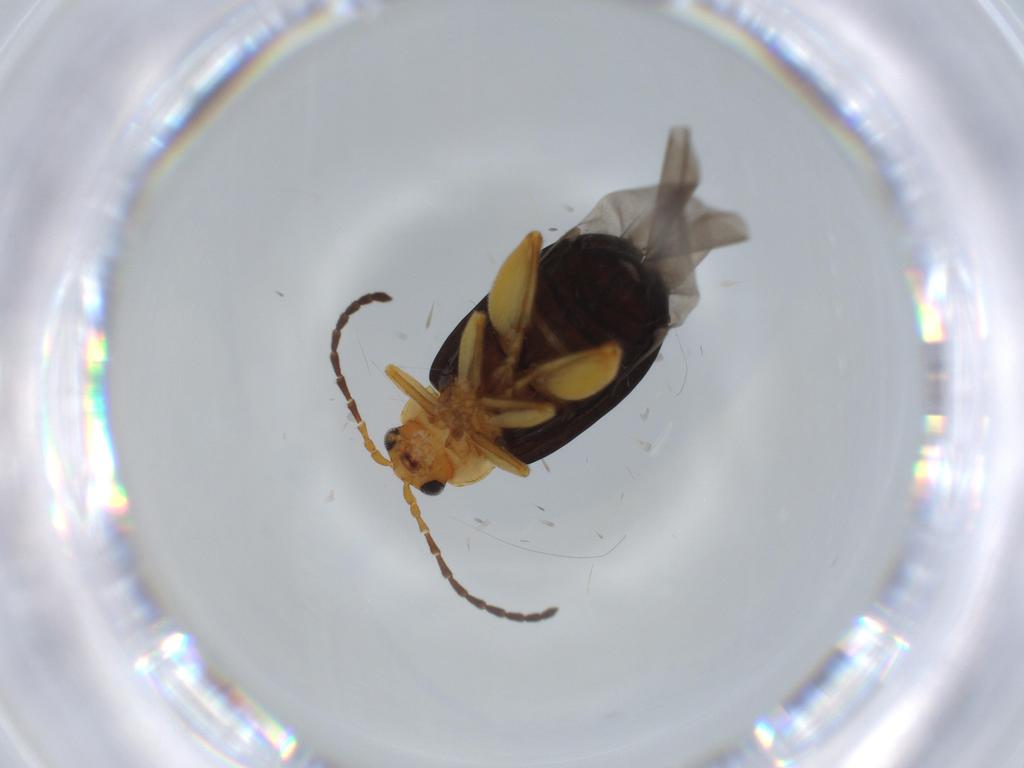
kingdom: Animalia
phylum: Arthropoda
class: Insecta
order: Coleoptera
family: Chrysomelidae
